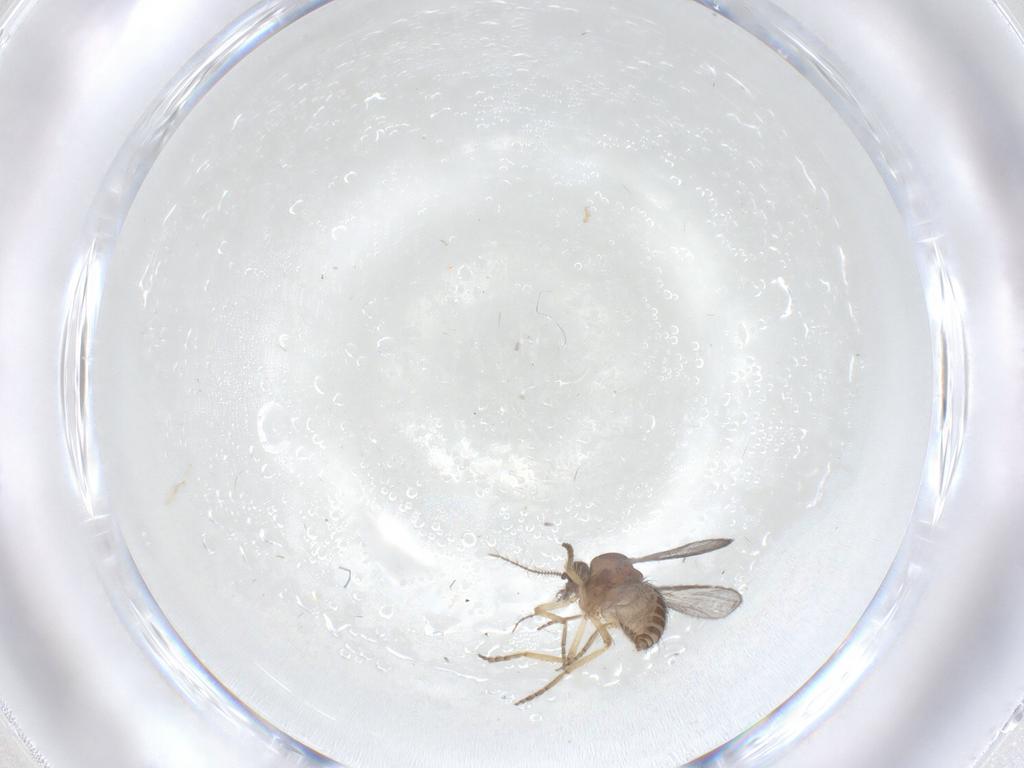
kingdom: Animalia
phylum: Arthropoda
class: Insecta
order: Diptera
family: Ceratopogonidae
